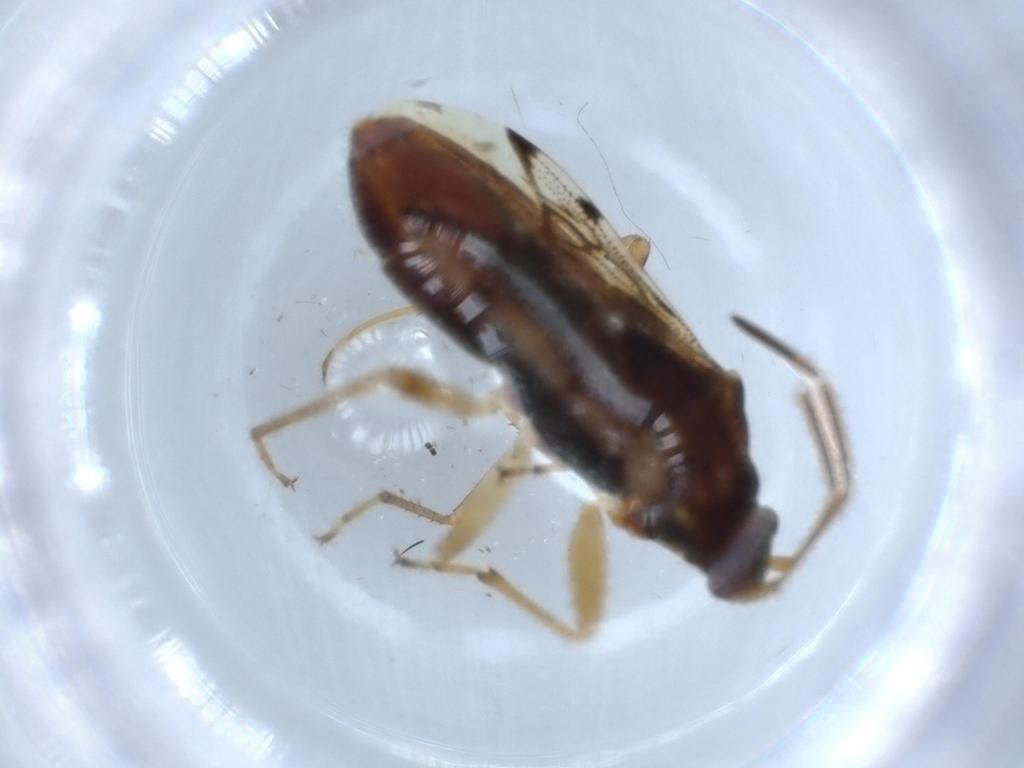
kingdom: Animalia
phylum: Arthropoda
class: Insecta
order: Hemiptera
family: Rhyparochromidae
